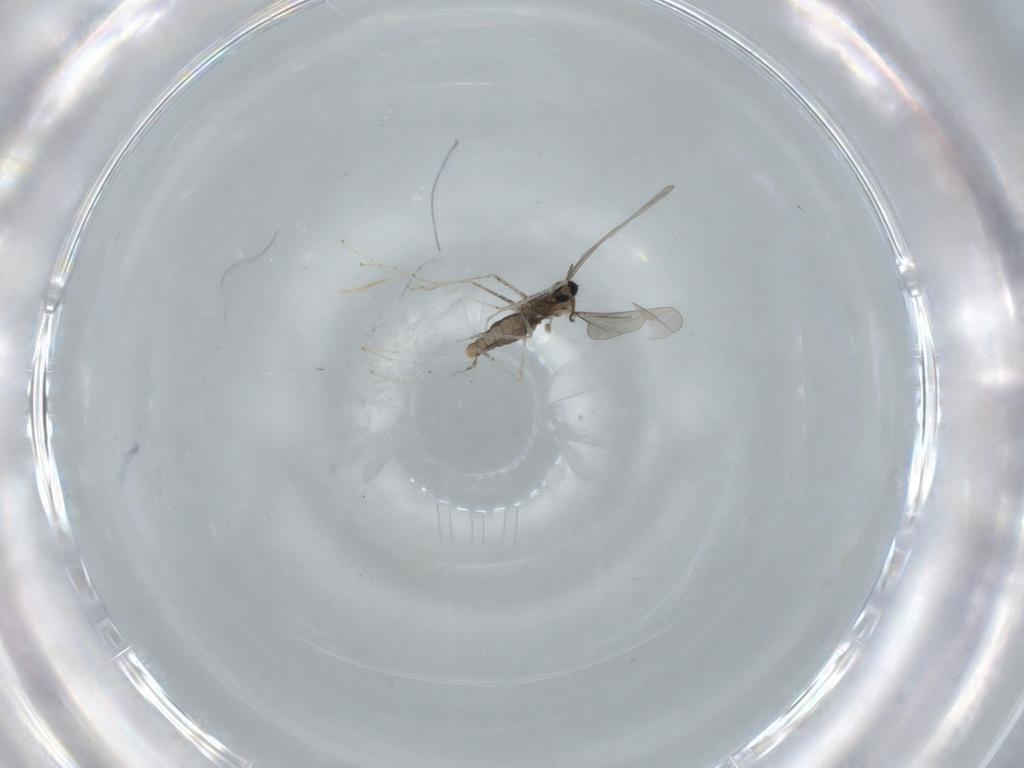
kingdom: Animalia
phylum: Arthropoda
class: Insecta
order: Diptera
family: Cecidomyiidae
